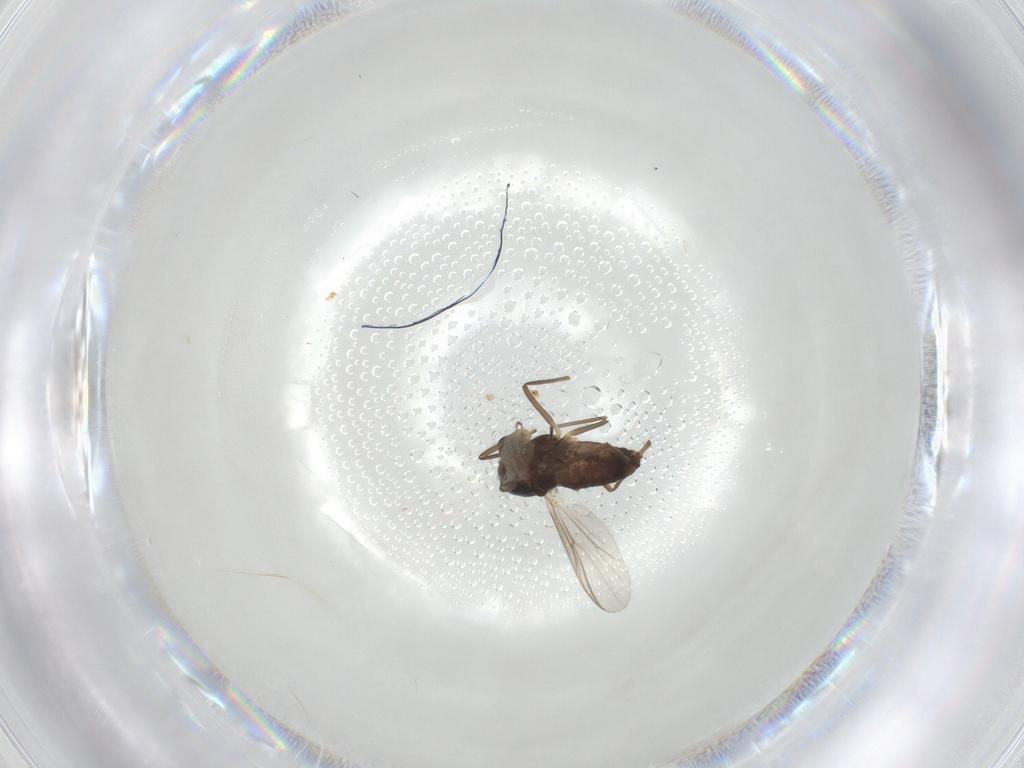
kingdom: Animalia
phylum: Arthropoda
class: Insecta
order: Diptera
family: Chironomidae
